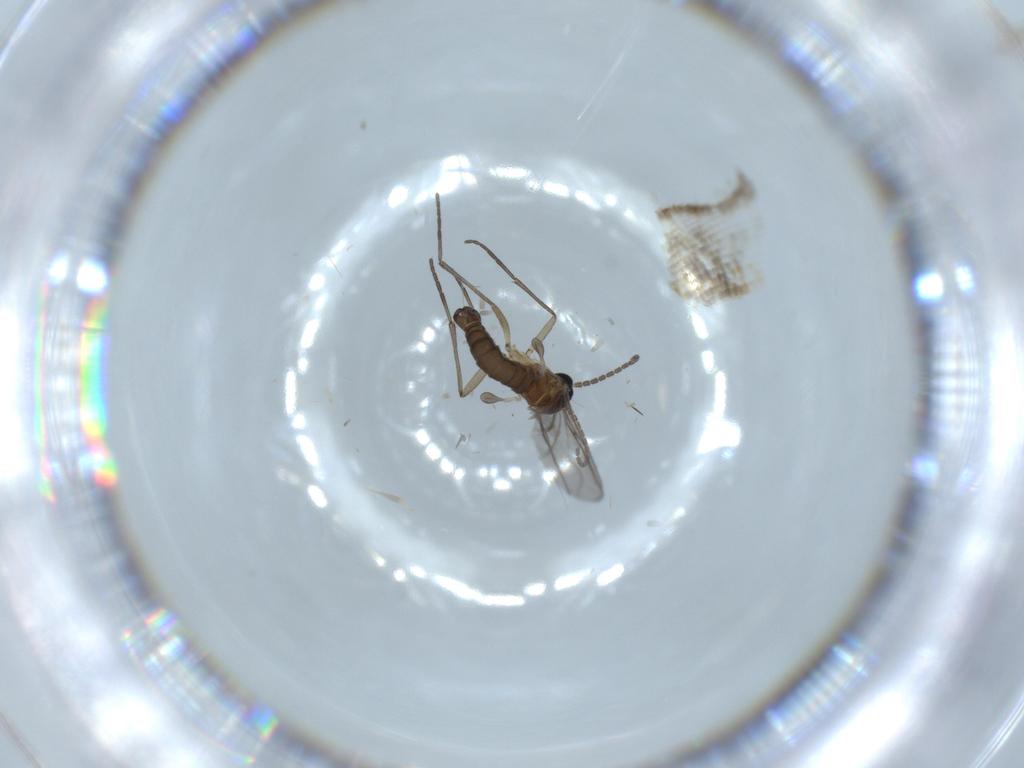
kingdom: Animalia
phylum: Arthropoda
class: Insecta
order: Diptera
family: Sciaridae
